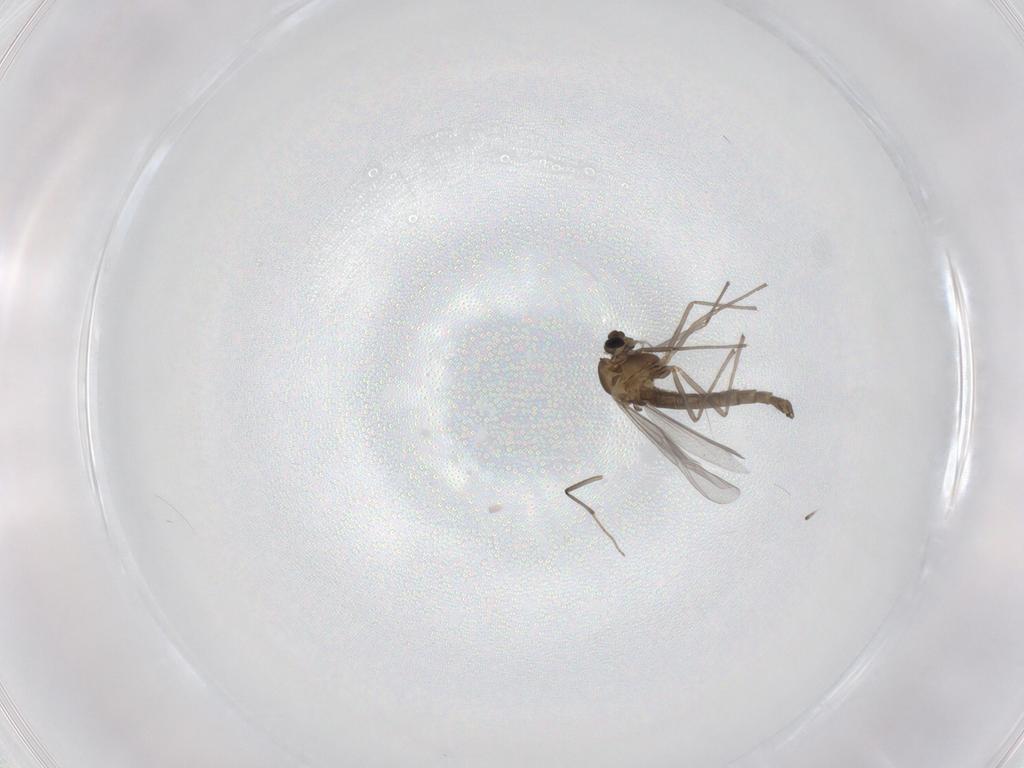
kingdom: Animalia
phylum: Arthropoda
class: Insecta
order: Diptera
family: Chironomidae
